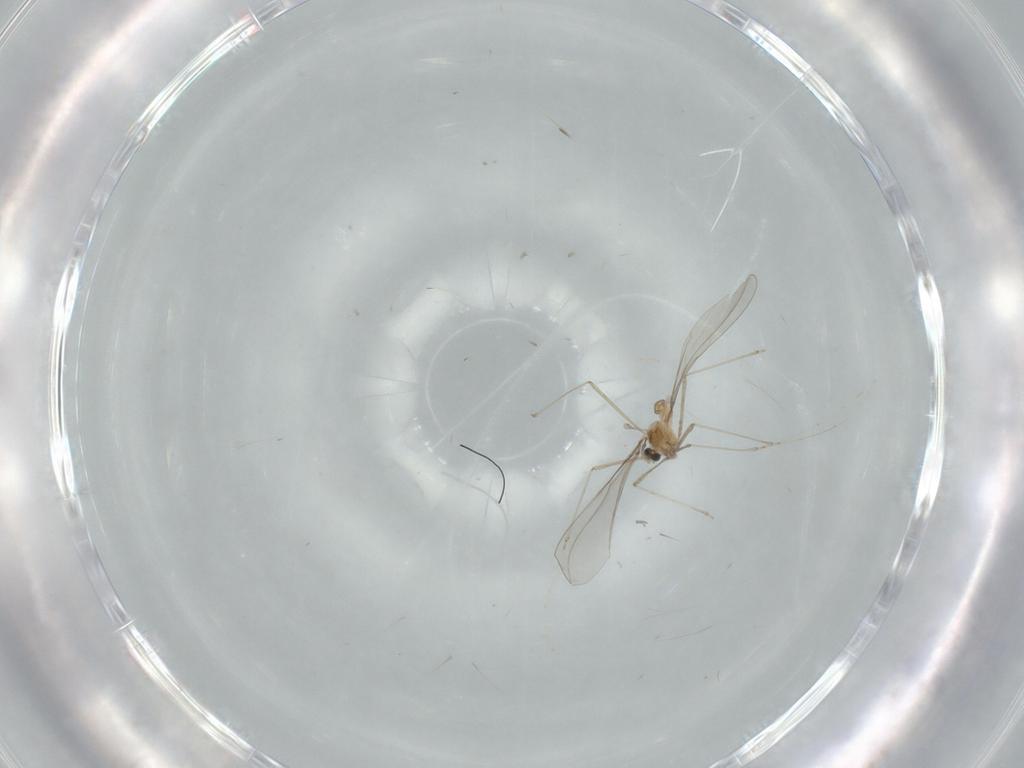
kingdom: Animalia
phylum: Arthropoda
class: Insecta
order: Diptera
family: Cecidomyiidae
